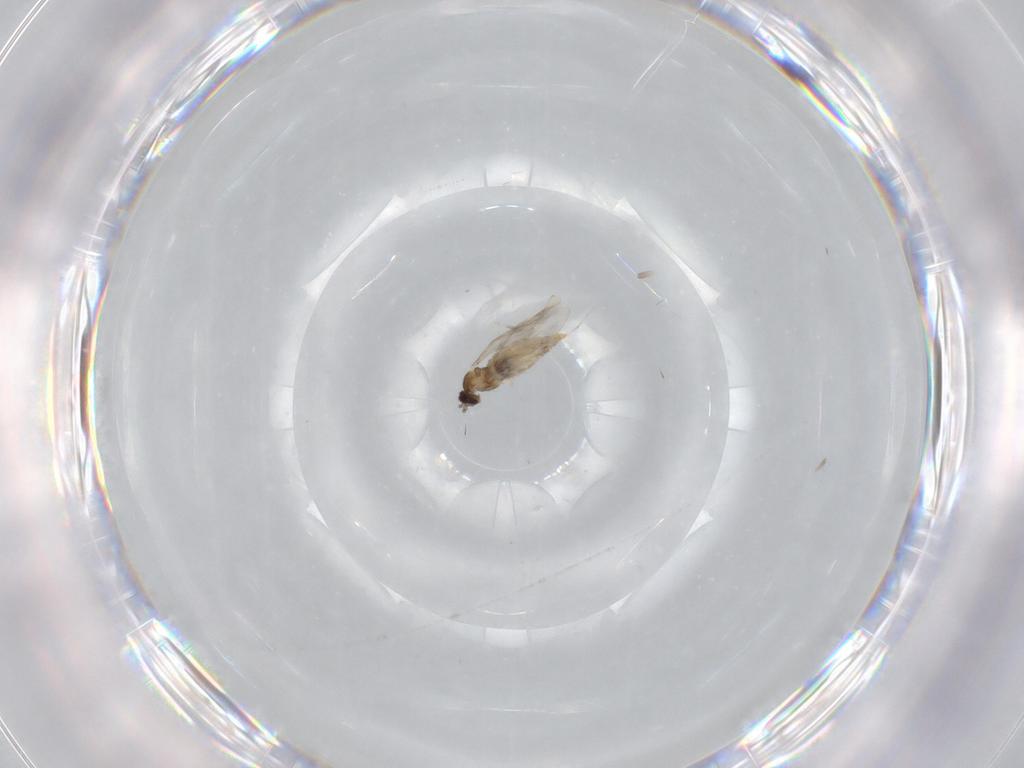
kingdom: Animalia
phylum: Arthropoda
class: Insecta
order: Diptera
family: Cecidomyiidae
